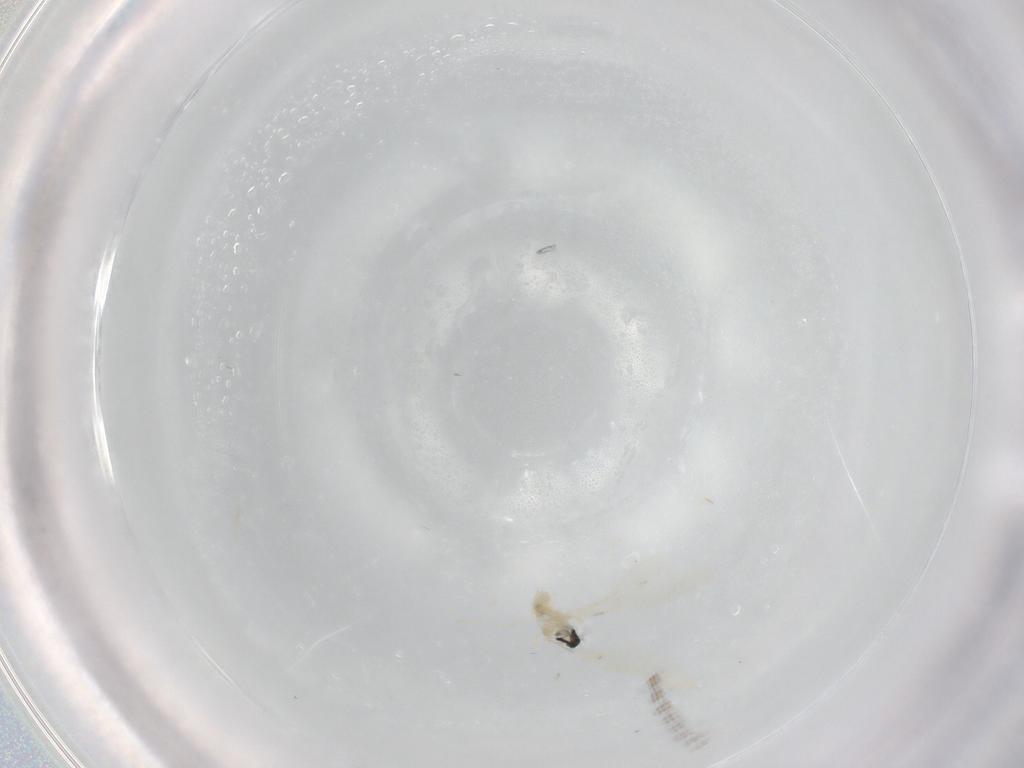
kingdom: Animalia
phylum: Arthropoda
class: Insecta
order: Diptera
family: Cecidomyiidae
